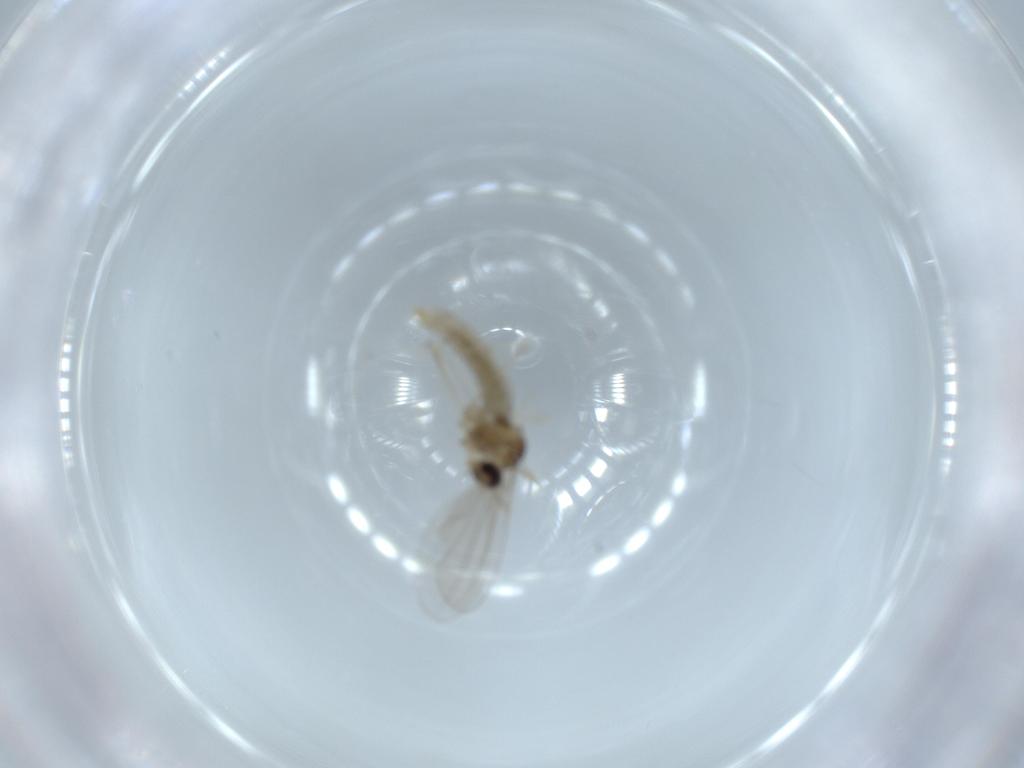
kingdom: Animalia
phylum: Arthropoda
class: Insecta
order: Diptera
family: Cecidomyiidae
